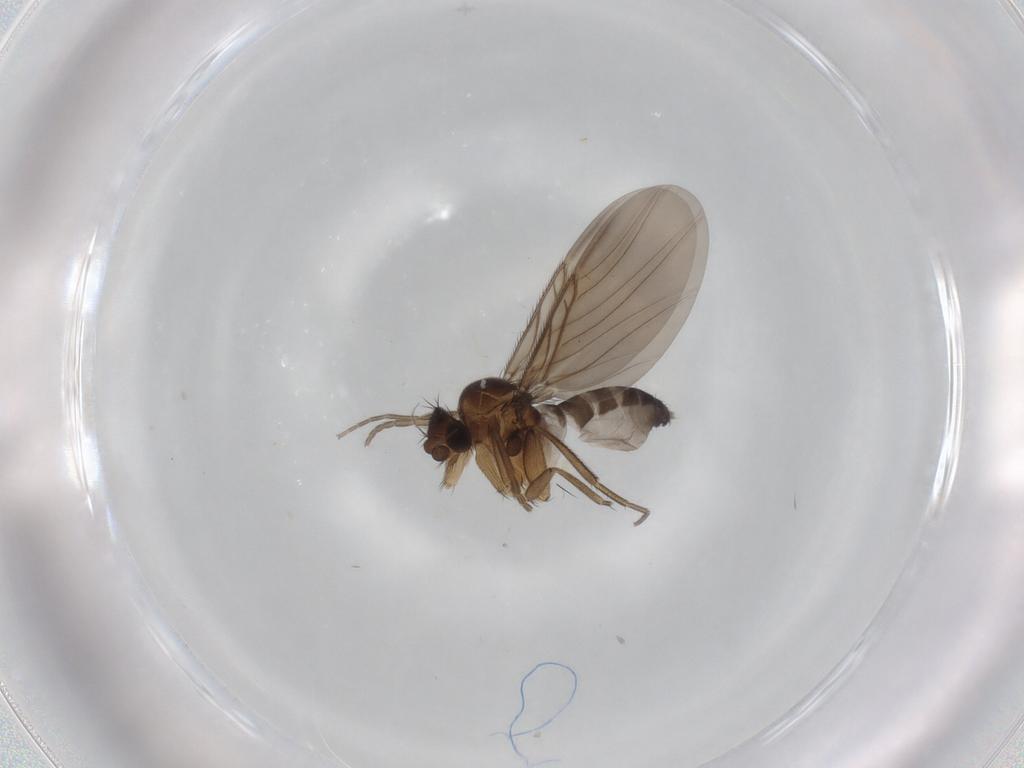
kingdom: Animalia
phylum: Arthropoda
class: Insecta
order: Diptera
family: Phoridae
